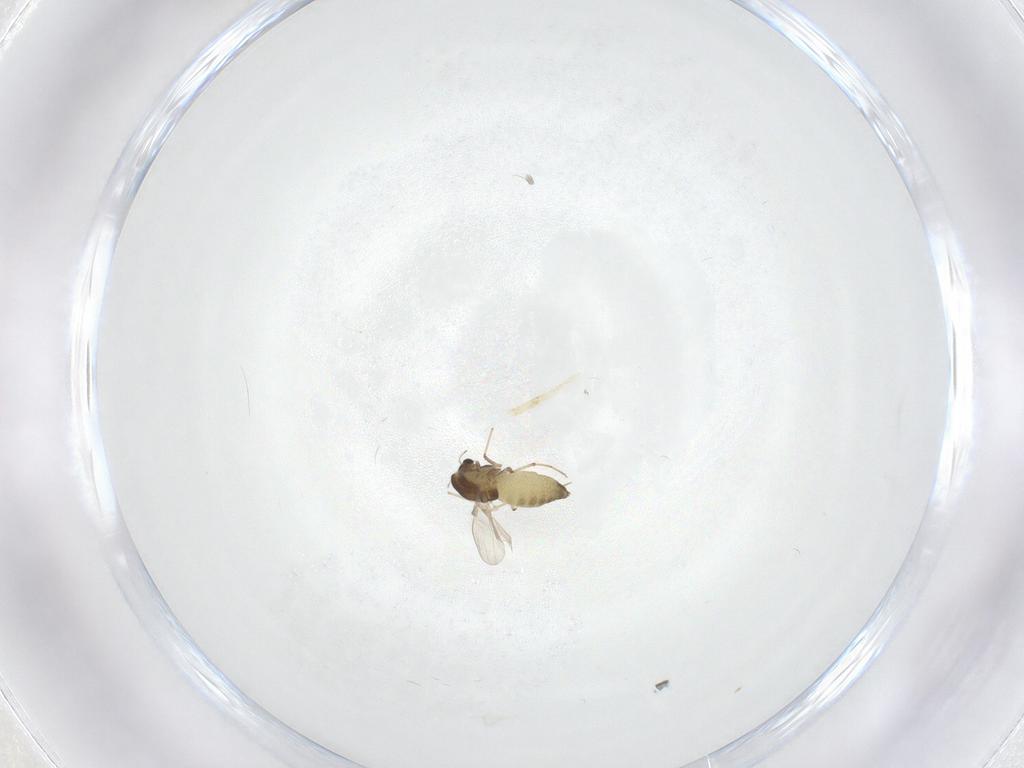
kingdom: Animalia
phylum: Arthropoda
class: Insecta
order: Diptera
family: Chironomidae
